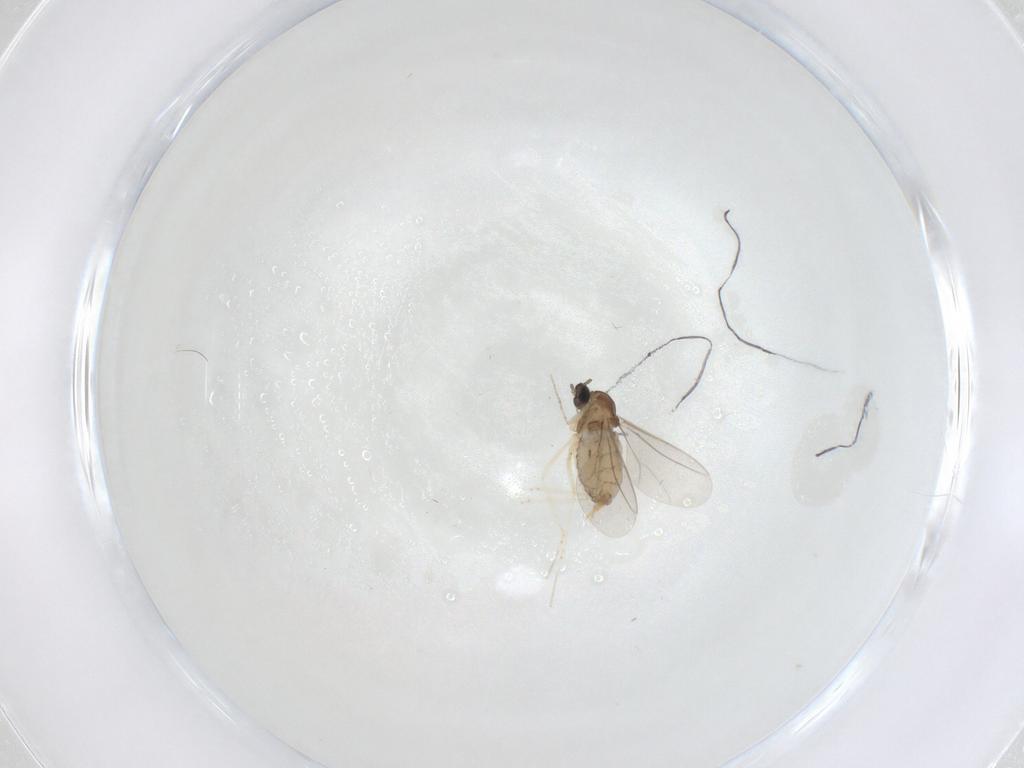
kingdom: Animalia
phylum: Arthropoda
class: Insecta
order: Diptera
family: Cecidomyiidae
